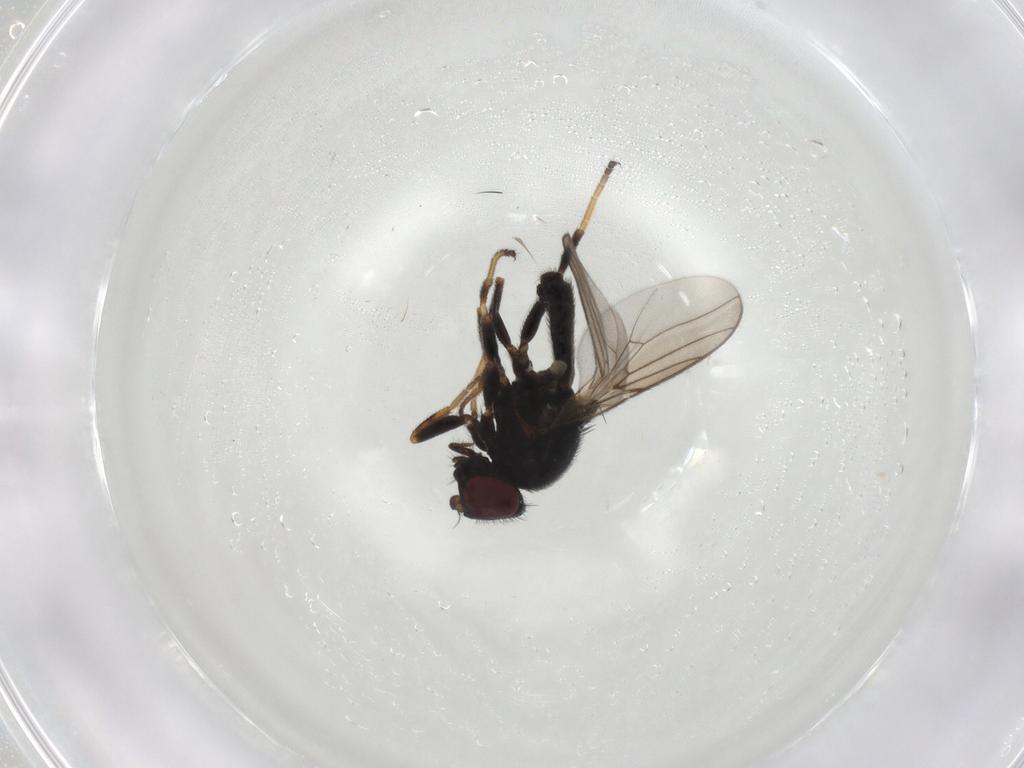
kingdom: Animalia
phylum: Arthropoda
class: Insecta
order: Diptera
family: Chloropidae
